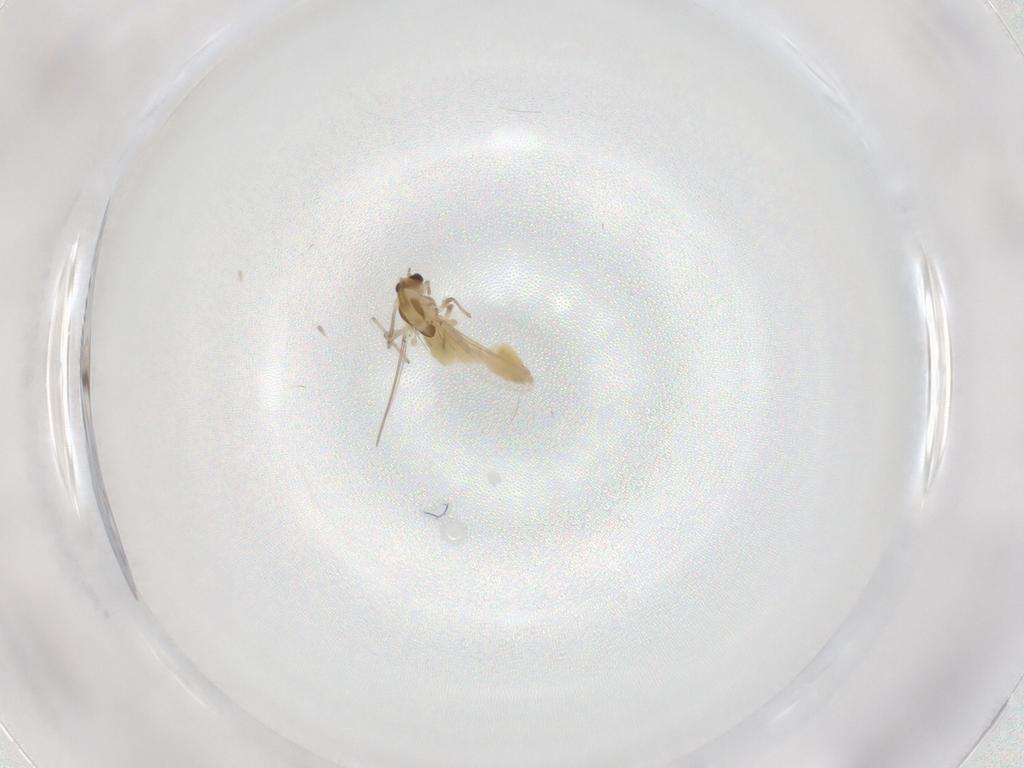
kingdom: Animalia
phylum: Arthropoda
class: Insecta
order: Diptera
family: Chironomidae
